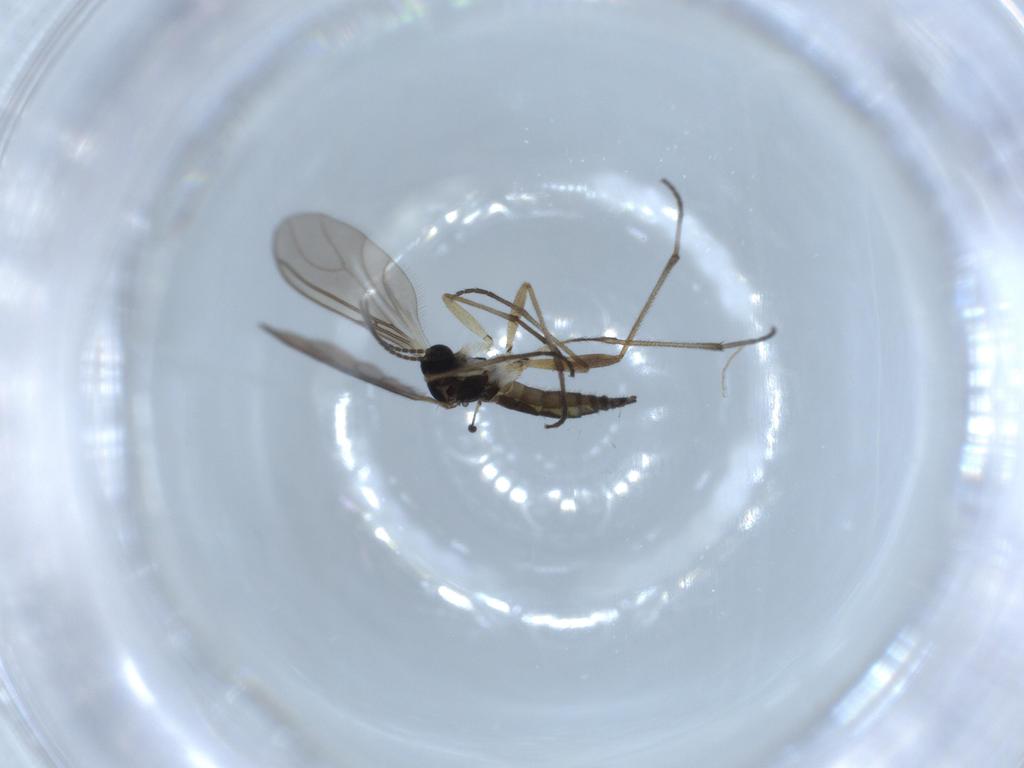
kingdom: Animalia
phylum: Arthropoda
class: Insecta
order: Diptera
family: Sciaridae
